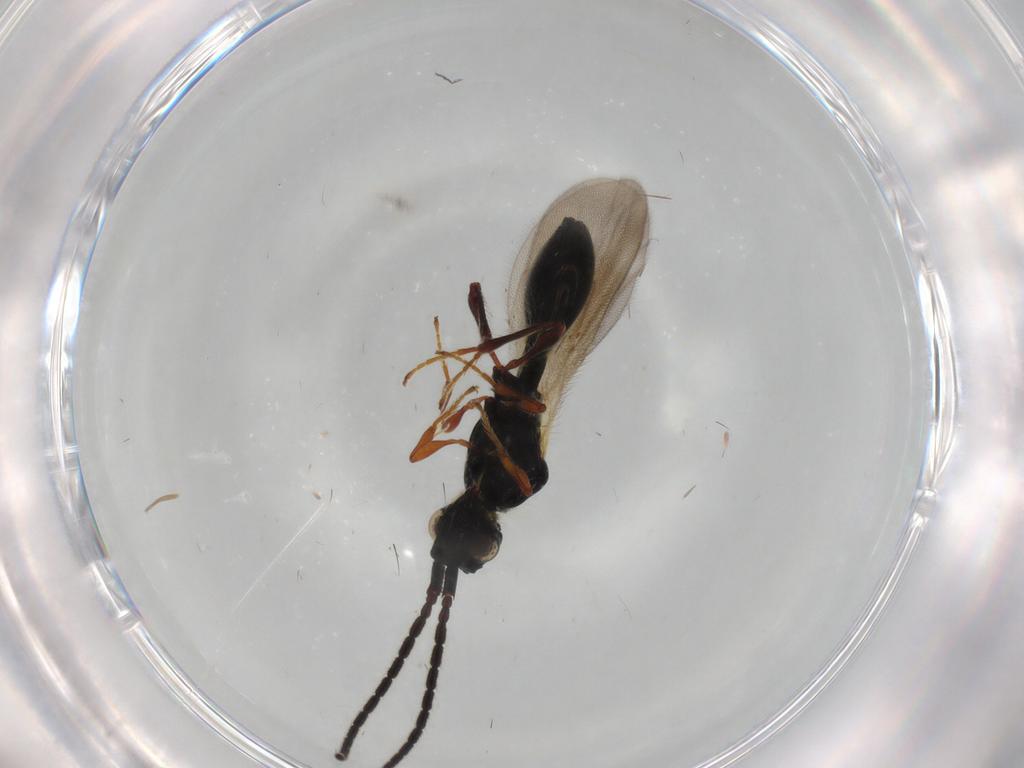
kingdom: Animalia
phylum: Arthropoda
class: Insecta
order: Hymenoptera
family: Diapriidae
